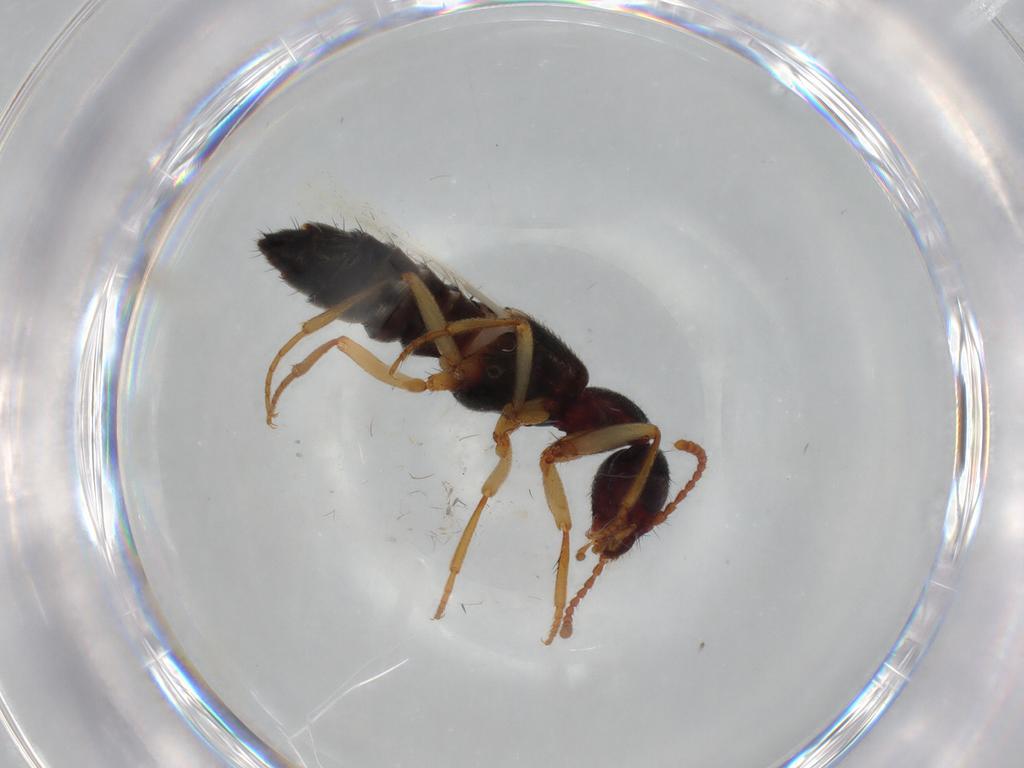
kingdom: Animalia
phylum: Arthropoda
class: Insecta
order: Coleoptera
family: Staphylinidae
